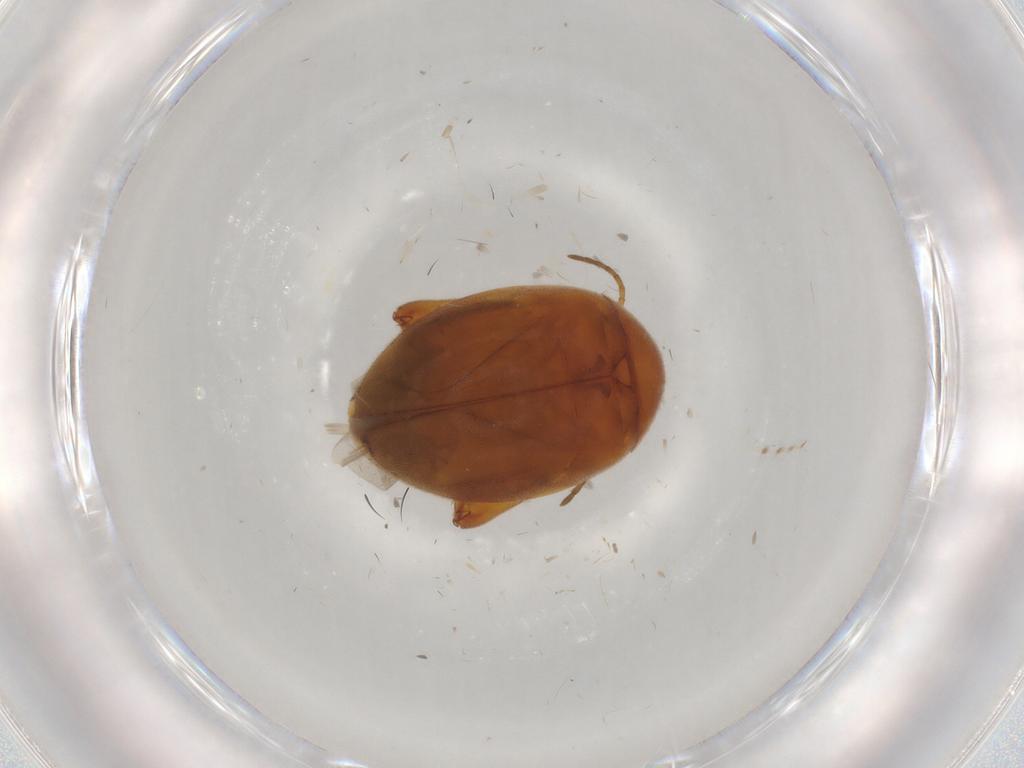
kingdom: Animalia
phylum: Arthropoda
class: Insecta
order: Coleoptera
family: Scirtidae
